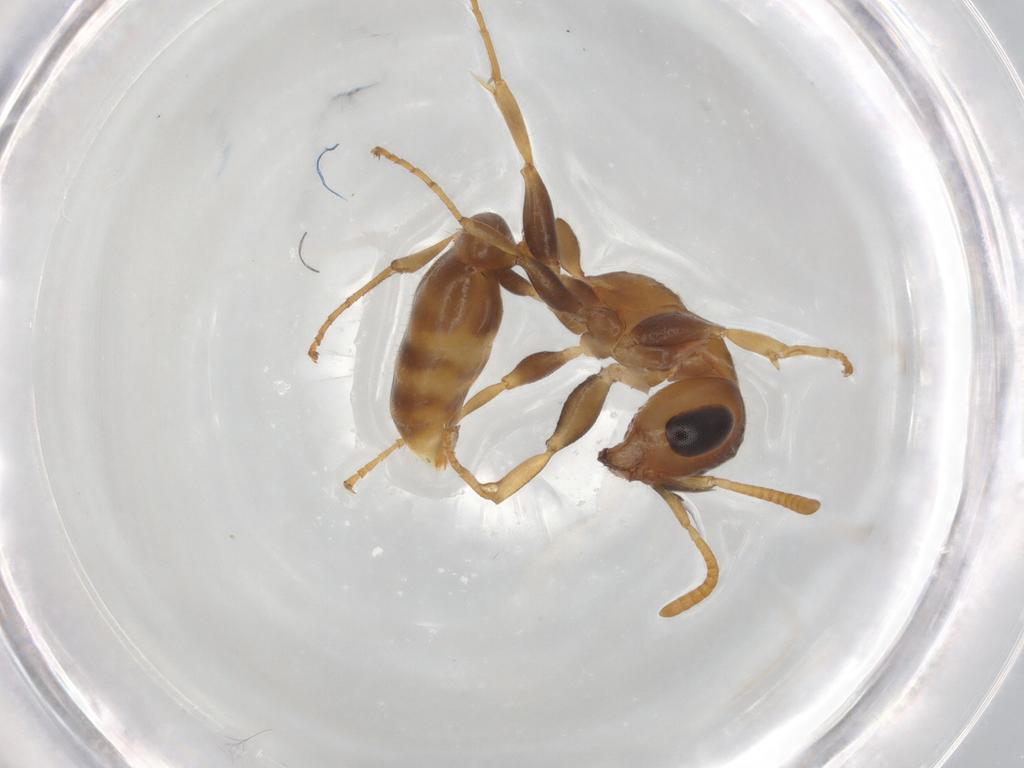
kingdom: Animalia
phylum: Arthropoda
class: Insecta
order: Hymenoptera
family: Formicidae
